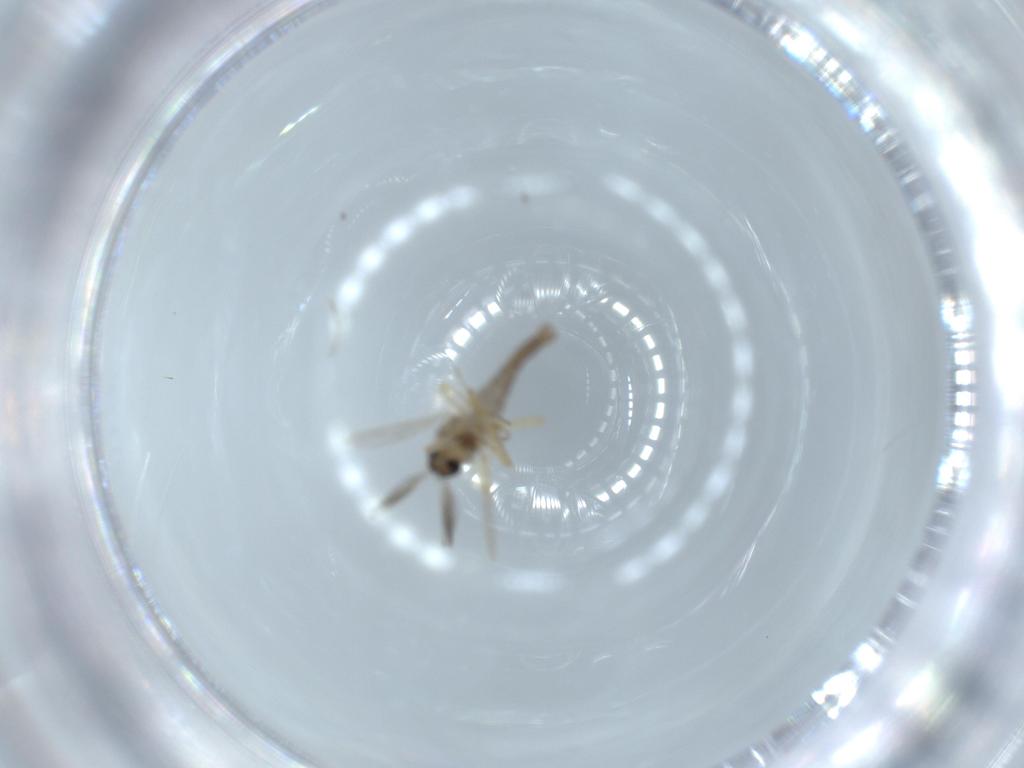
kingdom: Animalia
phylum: Arthropoda
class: Insecta
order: Diptera
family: Ceratopogonidae
